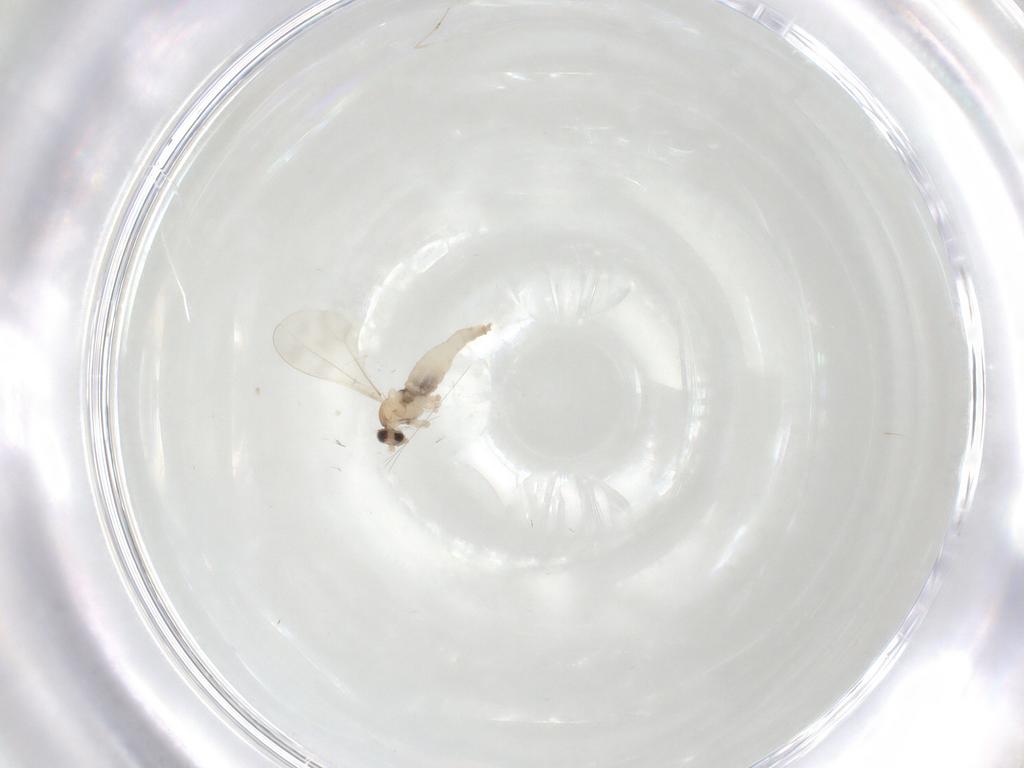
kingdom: Animalia
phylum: Arthropoda
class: Insecta
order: Diptera
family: Cecidomyiidae
